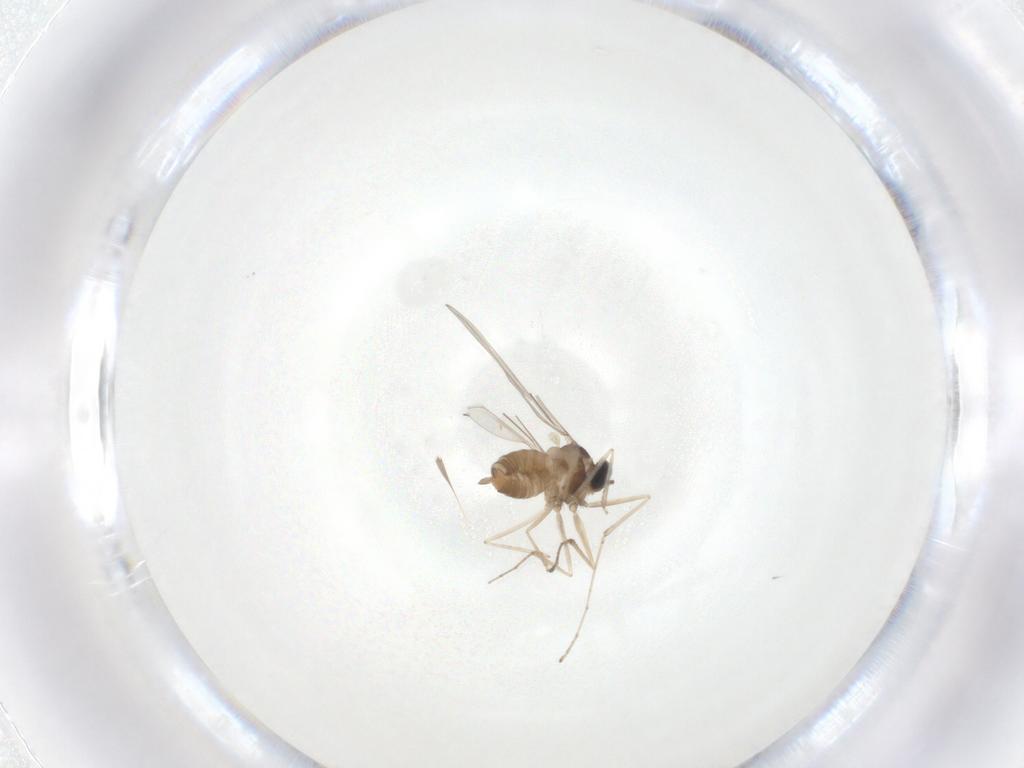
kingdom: Animalia
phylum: Arthropoda
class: Insecta
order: Diptera
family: Cecidomyiidae
